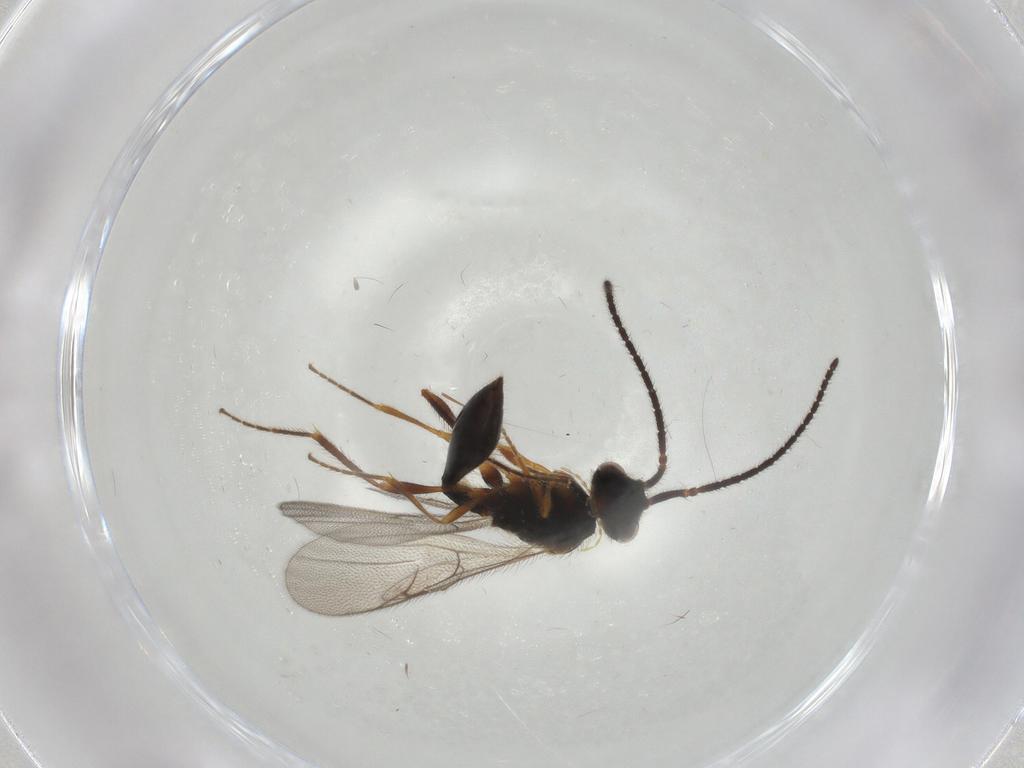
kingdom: Animalia
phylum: Arthropoda
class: Insecta
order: Hymenoptera
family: Diapriidae
